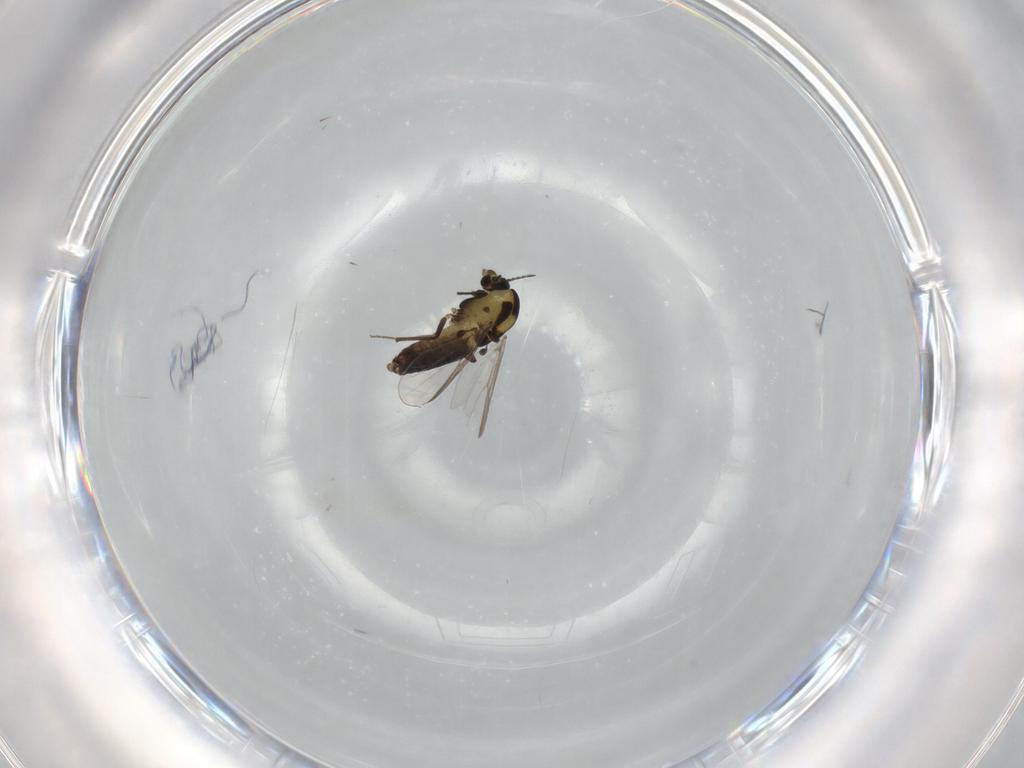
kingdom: Animalia
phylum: Arthropoda
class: Insecta
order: Diptera
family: Chironomidae
